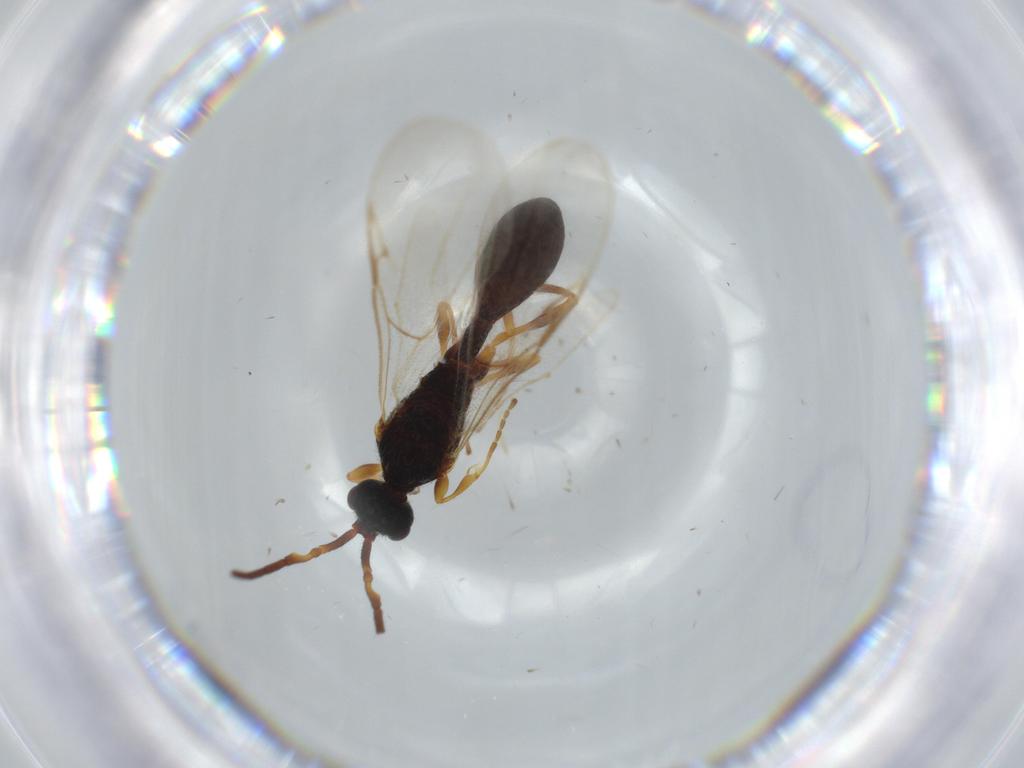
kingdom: Animalia
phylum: Arthropoda
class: Insecta
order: Hymenoptera
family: Braconidae
